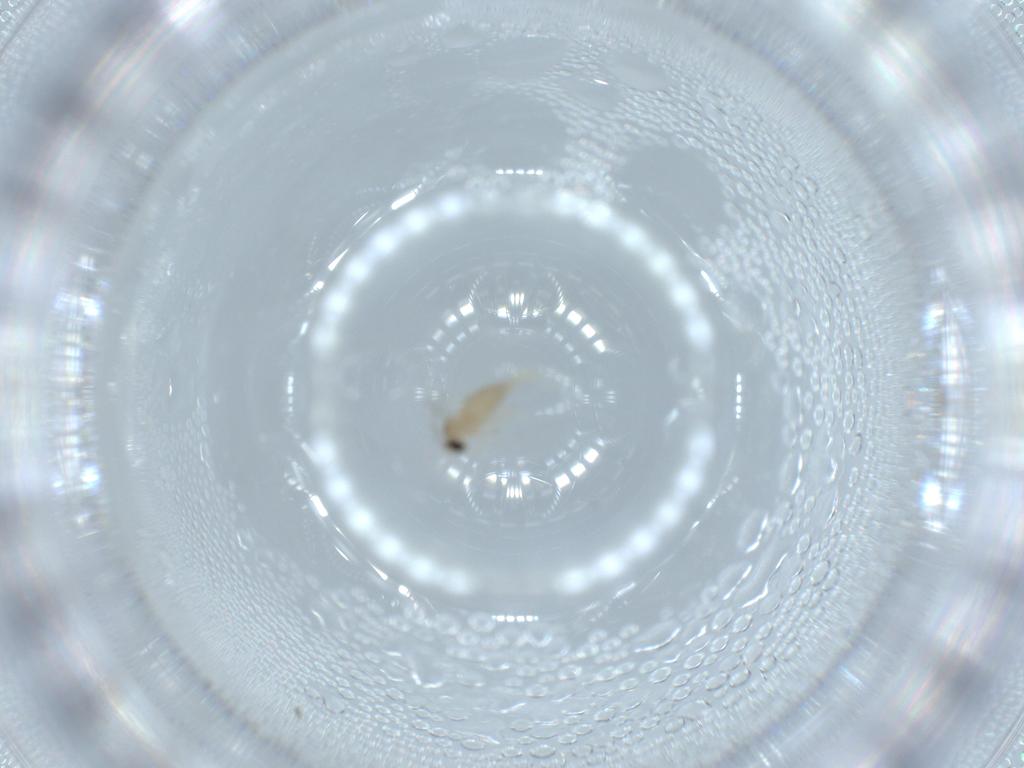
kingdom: Animalia
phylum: Arthropoda
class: Insecta
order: Diptera
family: Cecidomyiidae
